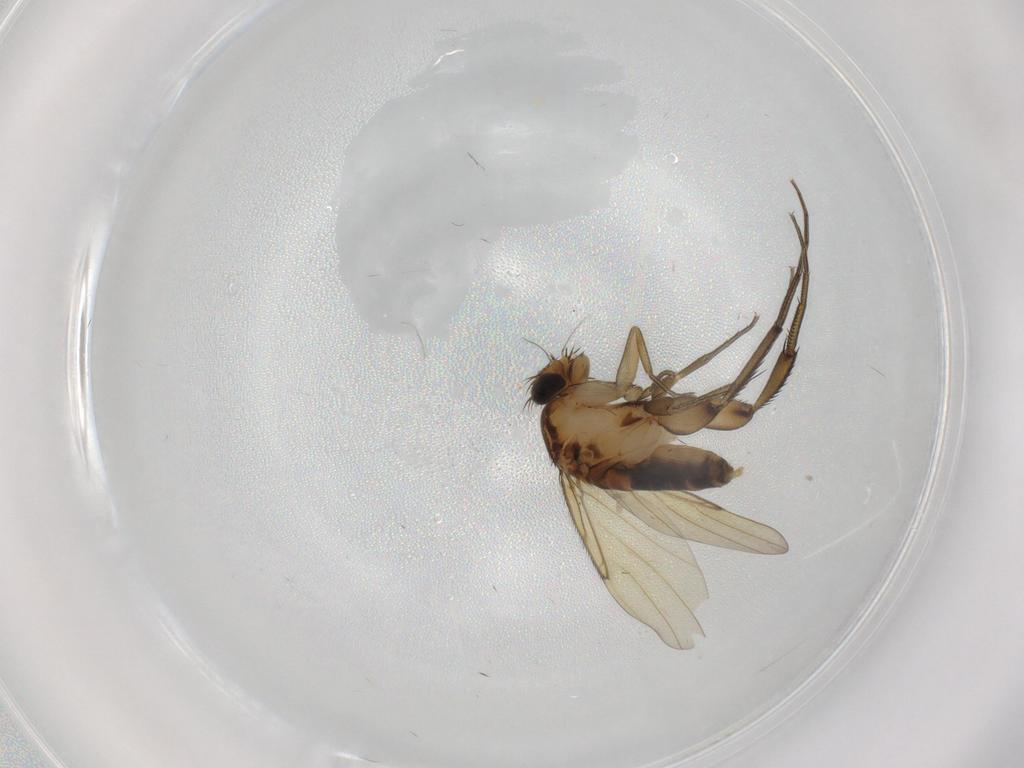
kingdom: Animalia
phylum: Arthropoda
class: Insecta
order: Diptera
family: Phoridae
